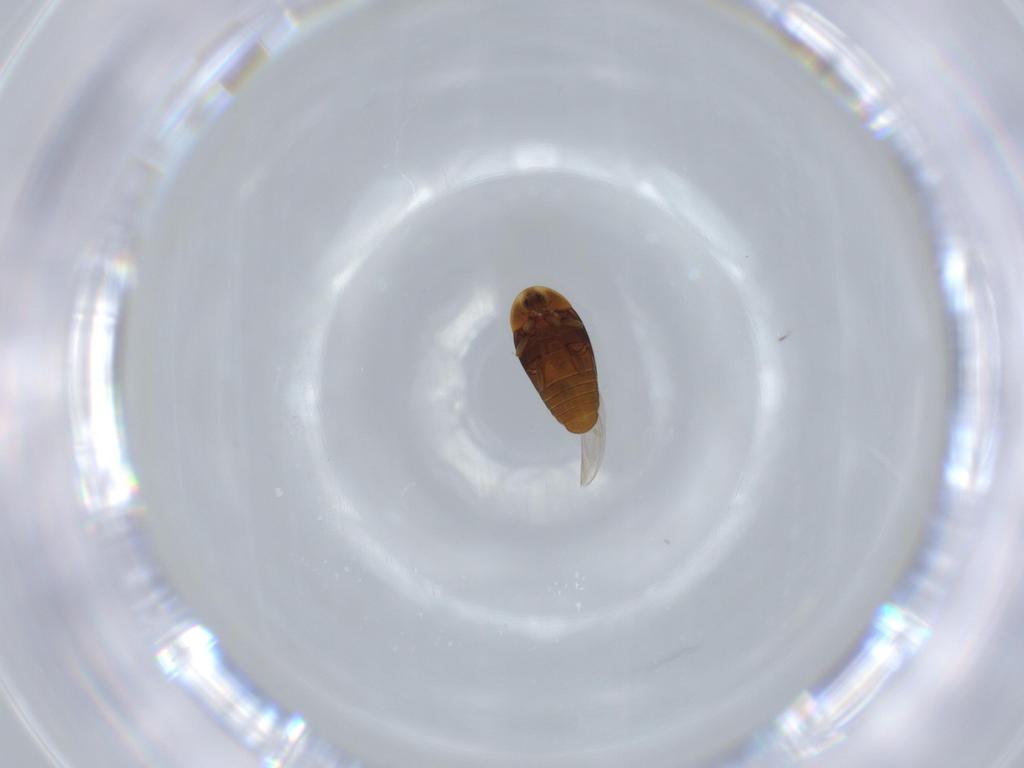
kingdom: Animalia
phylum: Arthropoda
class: Insecta
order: Coleoptera
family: Corylophidae
